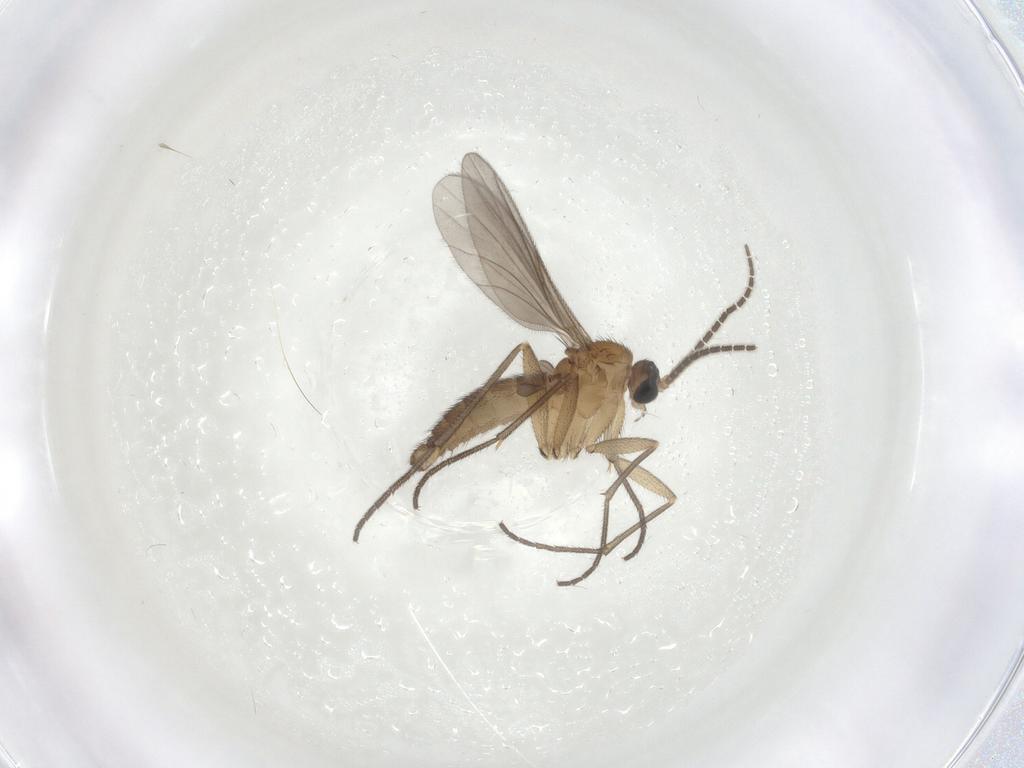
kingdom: Animalia
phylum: Arthropoda
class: Insecta
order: Diptera
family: Sciaridae
